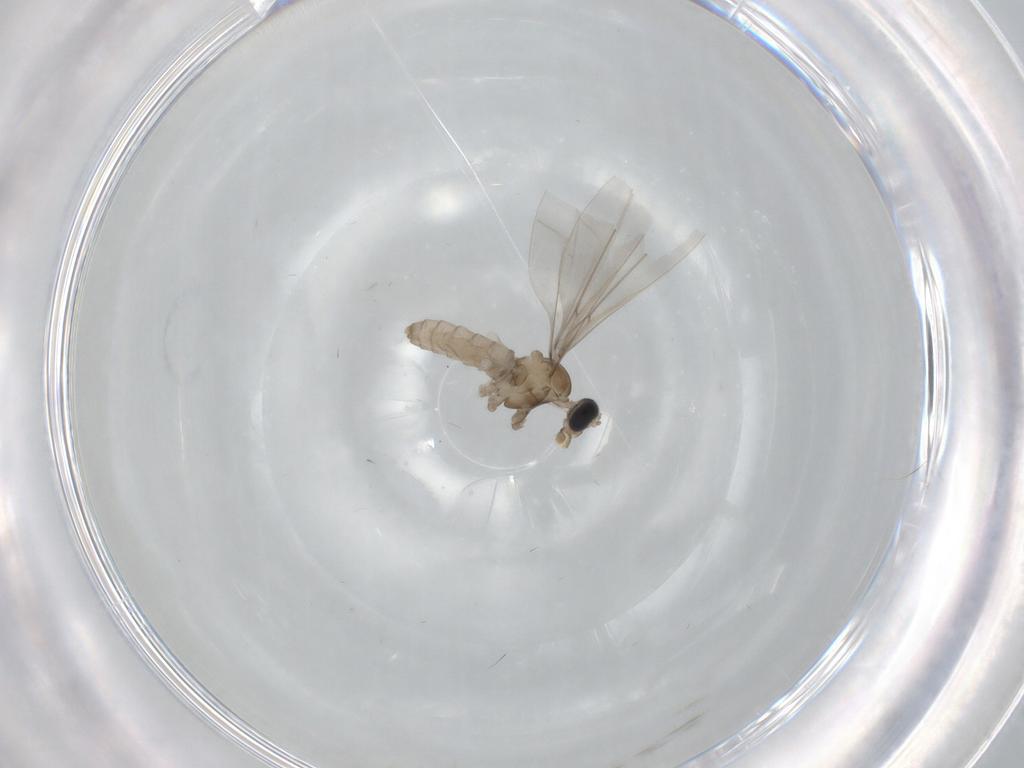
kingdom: Animalia
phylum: Arthropoda
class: Insecta
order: Diptera
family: Cecidomyiidae
